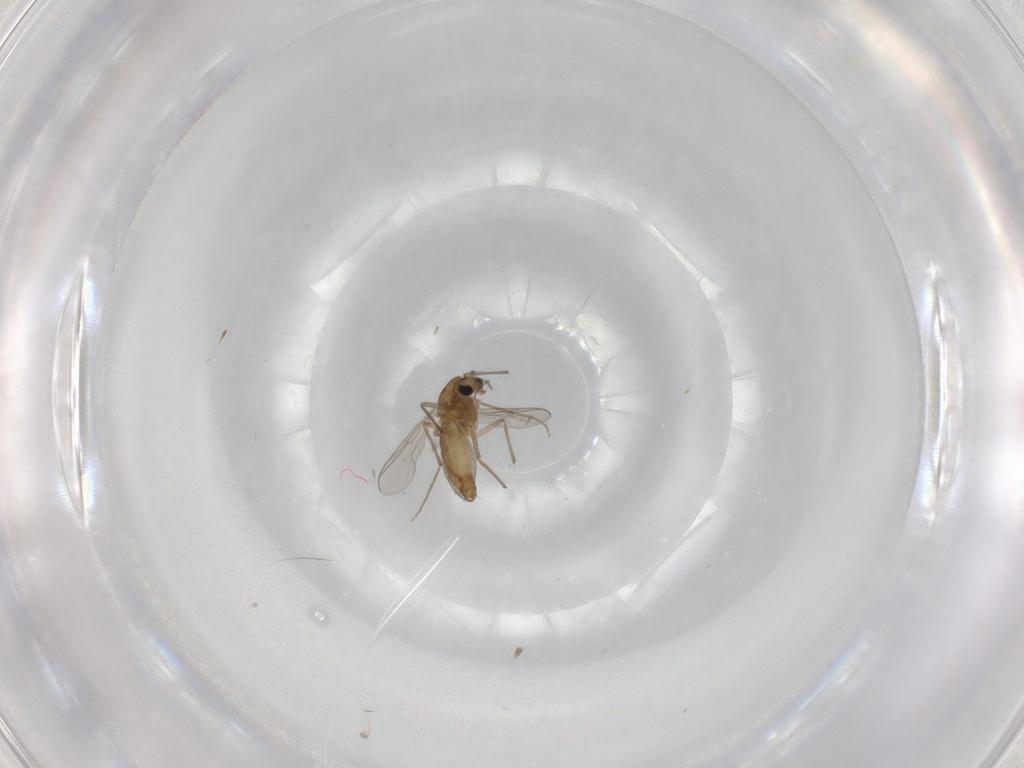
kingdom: Animalia
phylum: Arthropoda
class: Insecta
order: Diptera
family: Chironomidae
